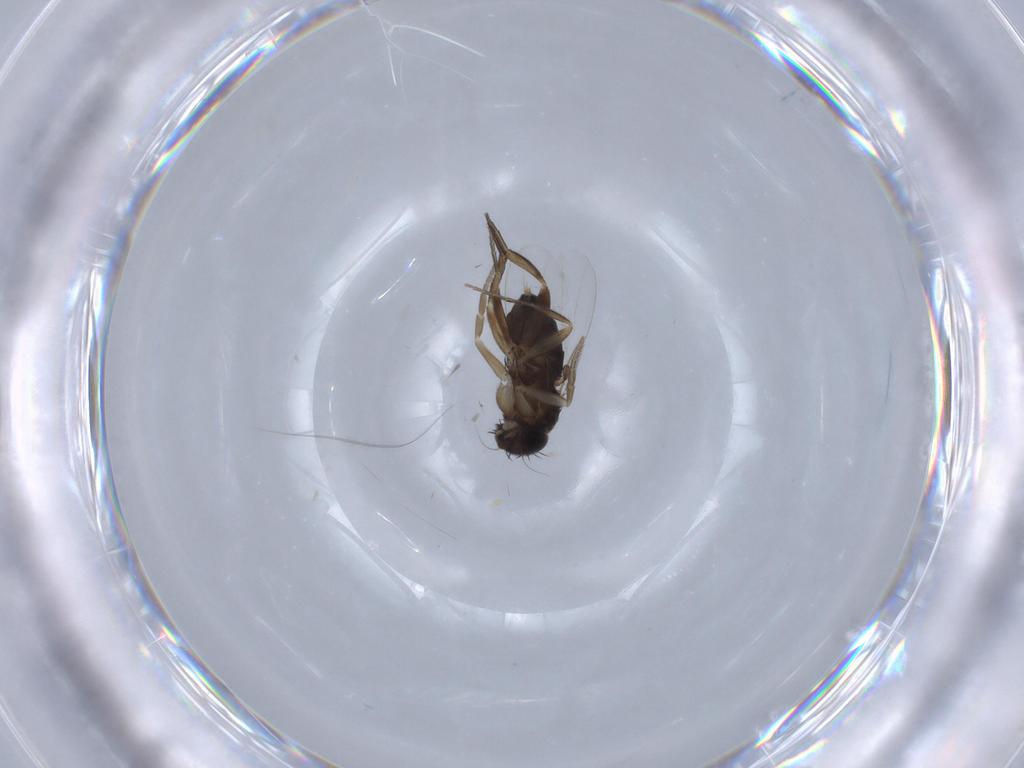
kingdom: Animalia
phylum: Arthropoda
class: Insecta
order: Diptera
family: Phoridae
